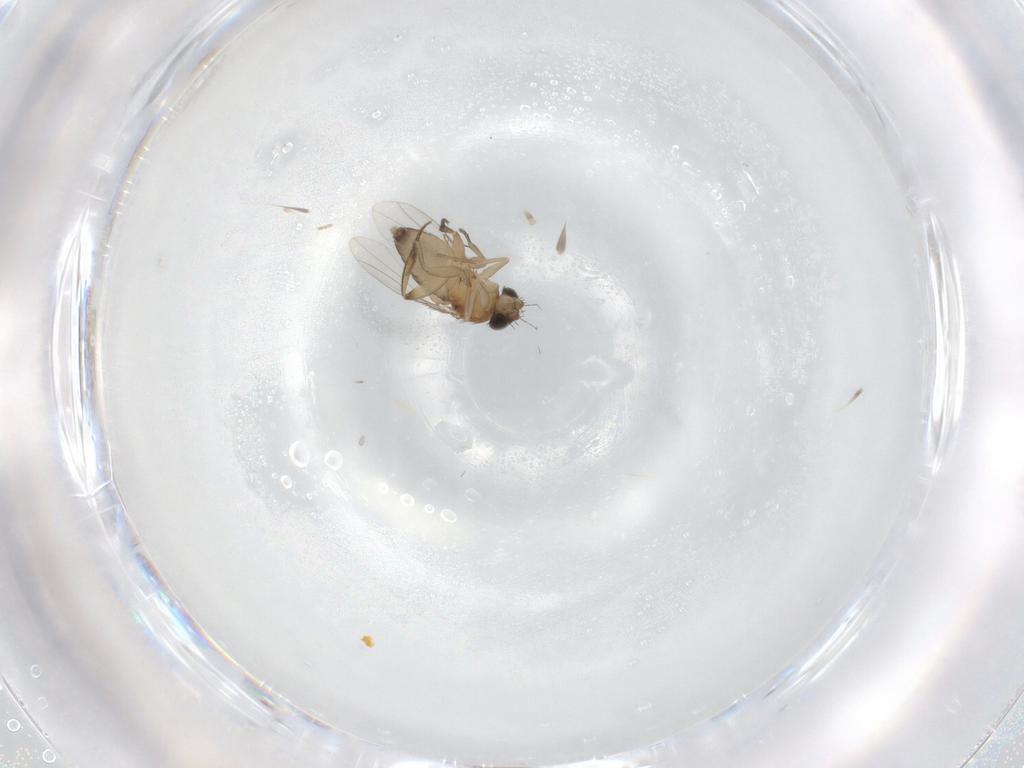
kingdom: Animalia
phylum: Arthropoda
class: Insecta
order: Diptera
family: Phoridae
